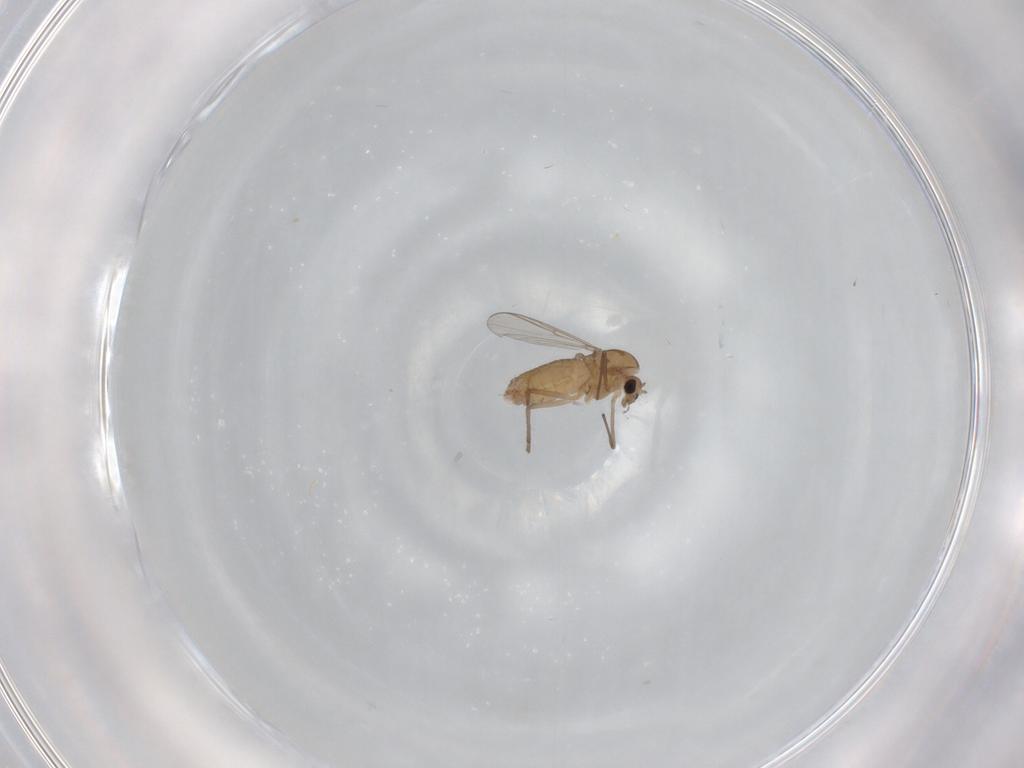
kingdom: Animalia
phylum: Arthropoda
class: Insecta
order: Diptera
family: Chironomidae
